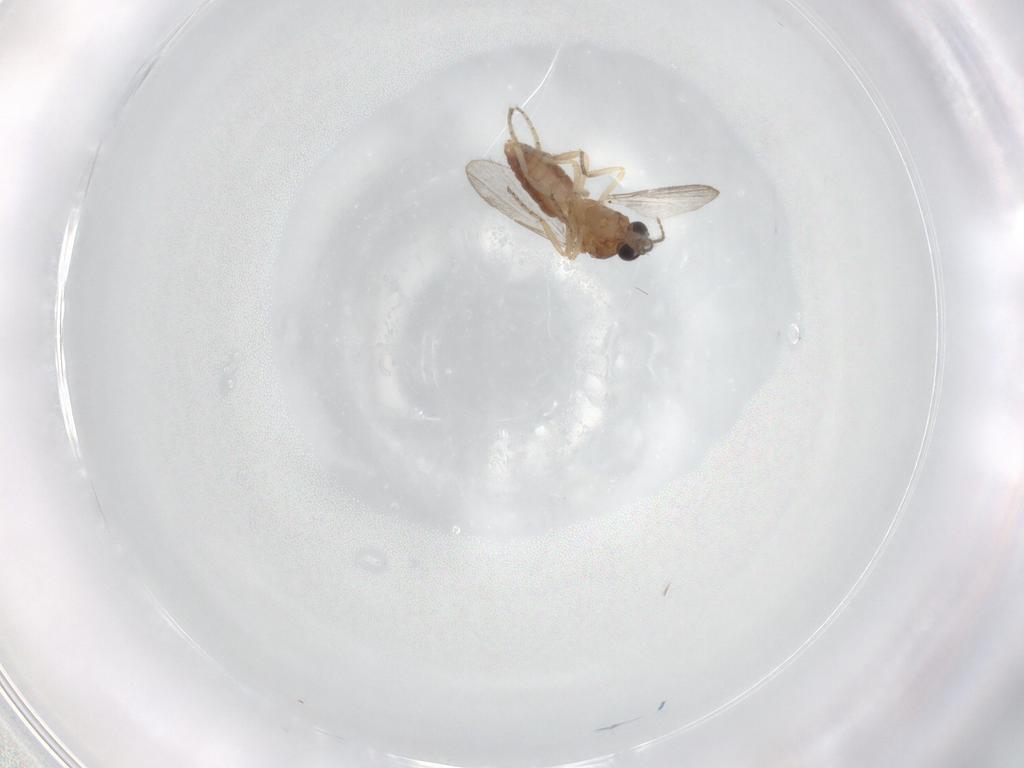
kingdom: Animalia
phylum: Arthropoda
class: Insecta
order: Diptera
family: Ceratopogonidae
